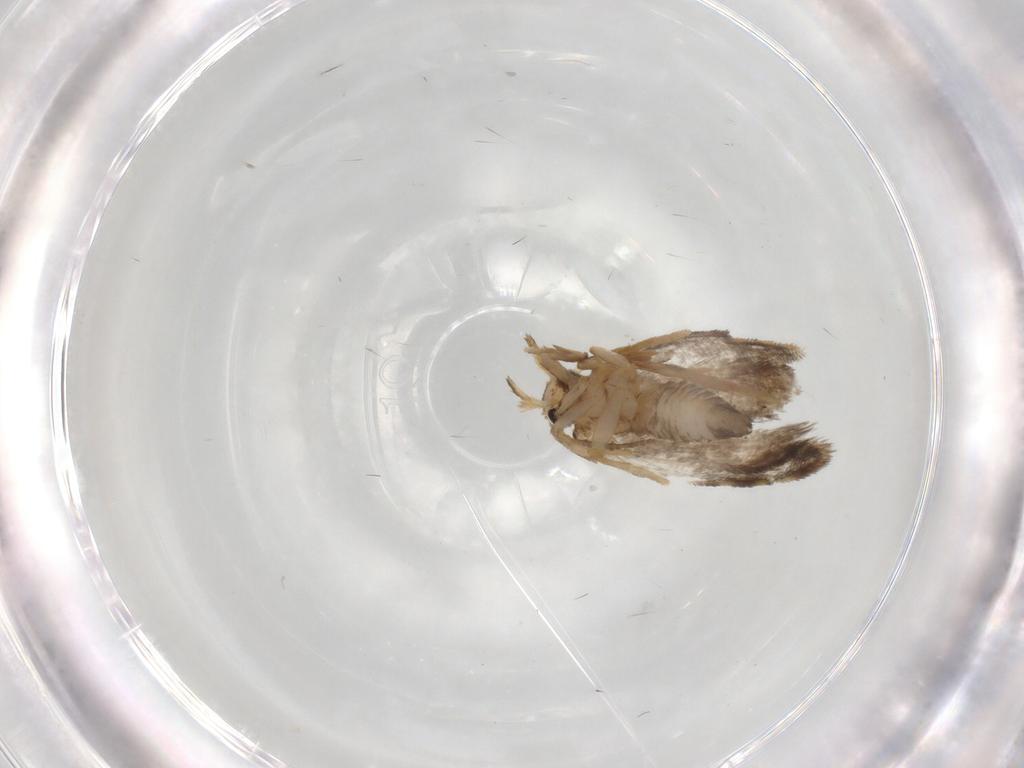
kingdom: Animalia
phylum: Arthropoda
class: Insecta
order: Lepidoptera
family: Psychidae
